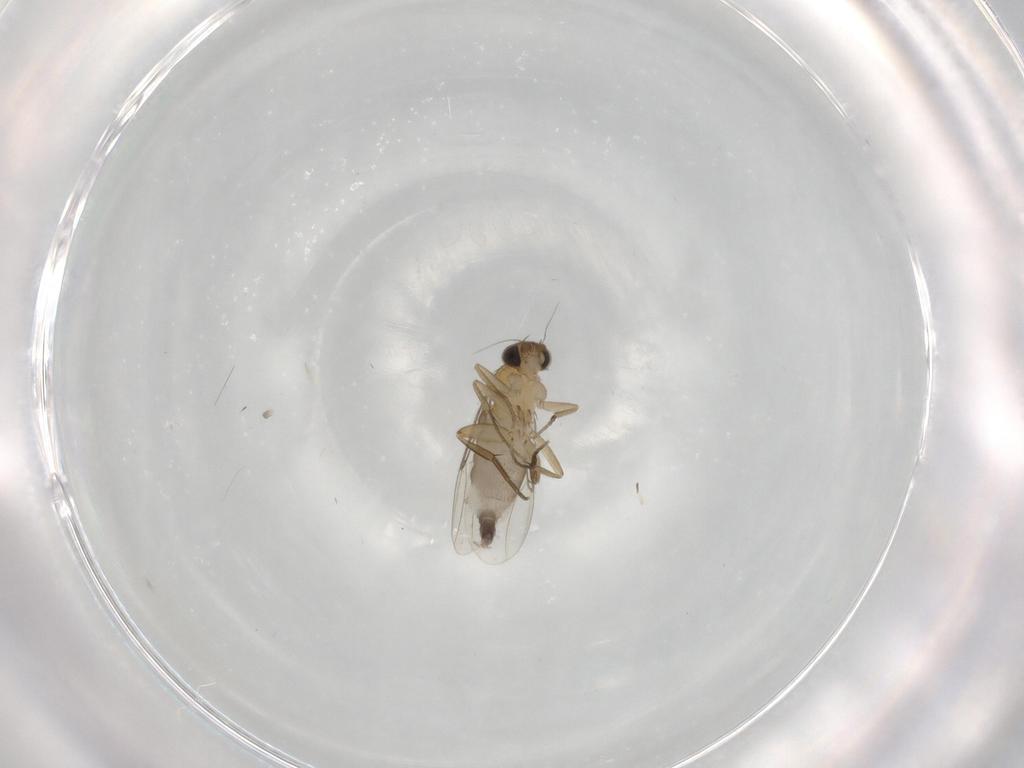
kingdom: Animalia
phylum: Arthropoda
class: Insecta
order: Diptera
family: Phoridae
